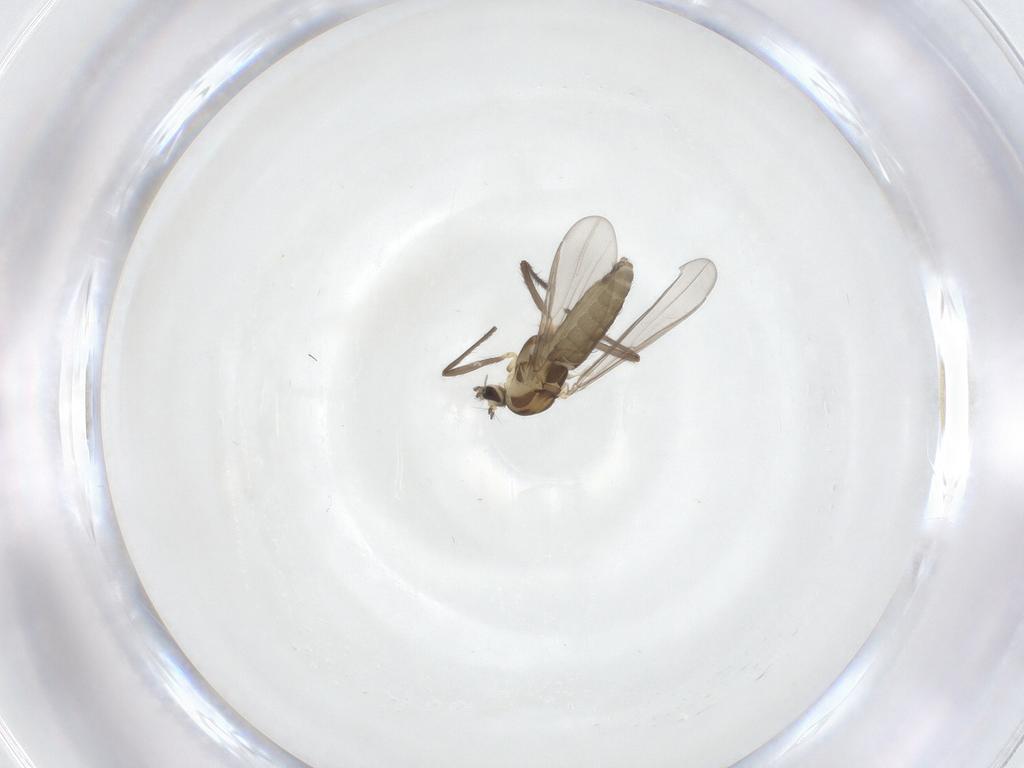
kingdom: Animalia
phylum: Arthropoda
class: Insecta
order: Diptera
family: Chironomidae
